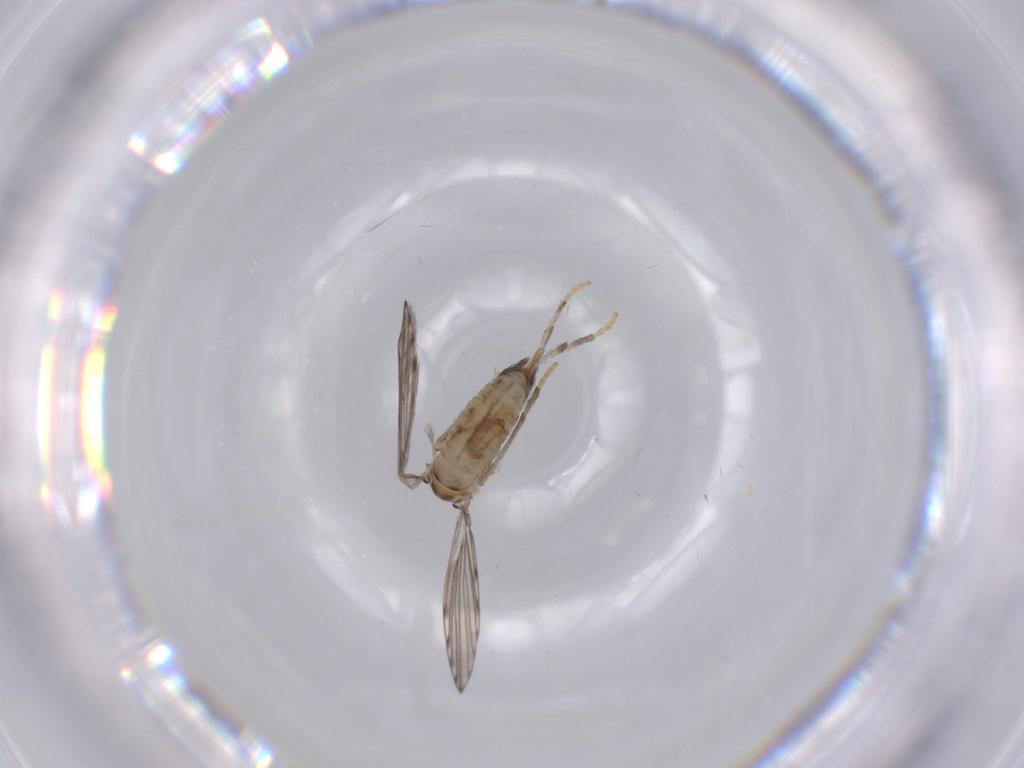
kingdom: Animalia
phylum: Arthropoda
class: Insecta
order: Diptera
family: Psychodidae
